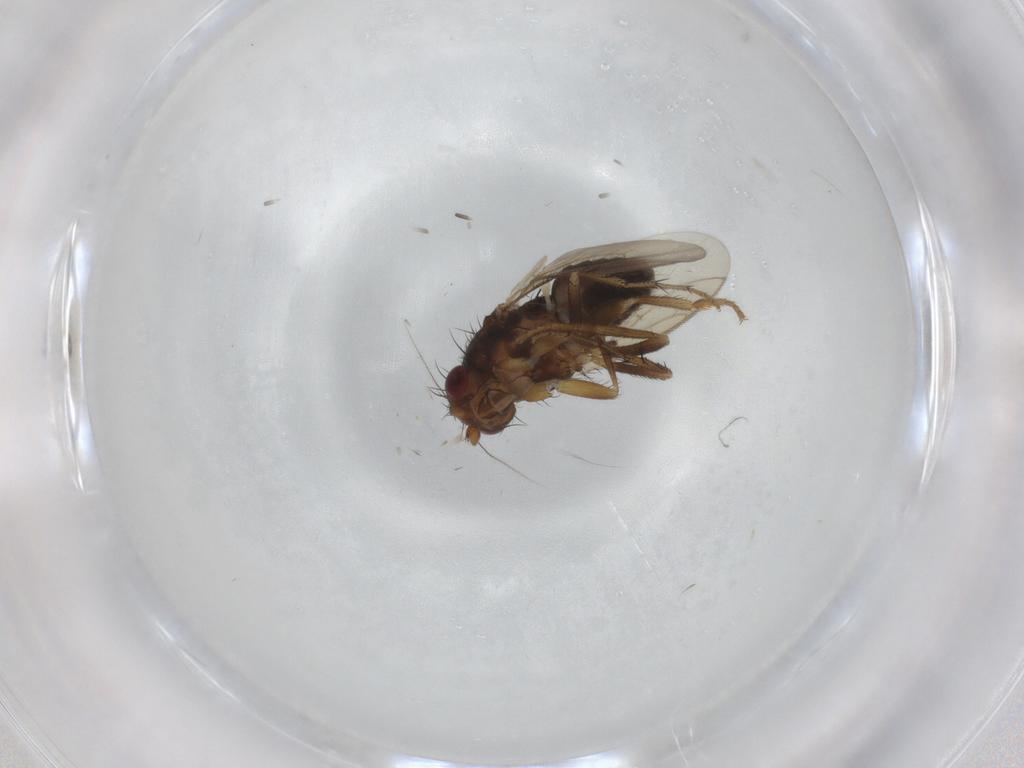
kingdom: Animalia
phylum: Arthropoda
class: Insecta
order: Diptera
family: Sphaeroceridae
